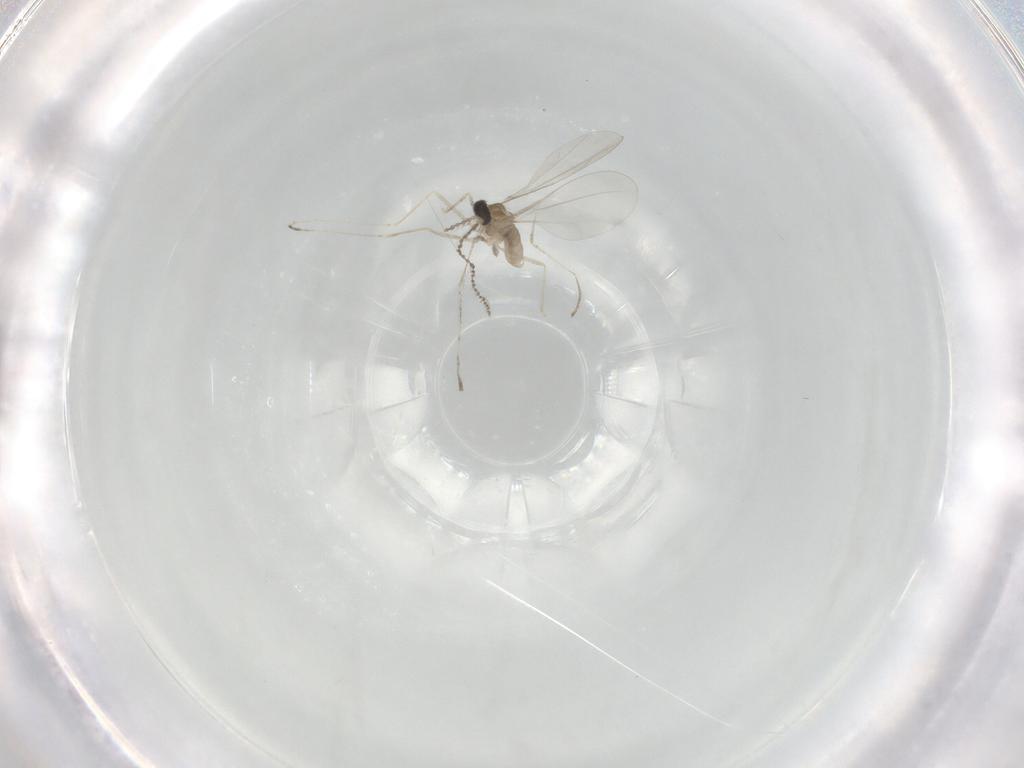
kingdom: Animalia
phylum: Arthropoda
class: Insecta
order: Diptera
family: Cecidomyiidae
